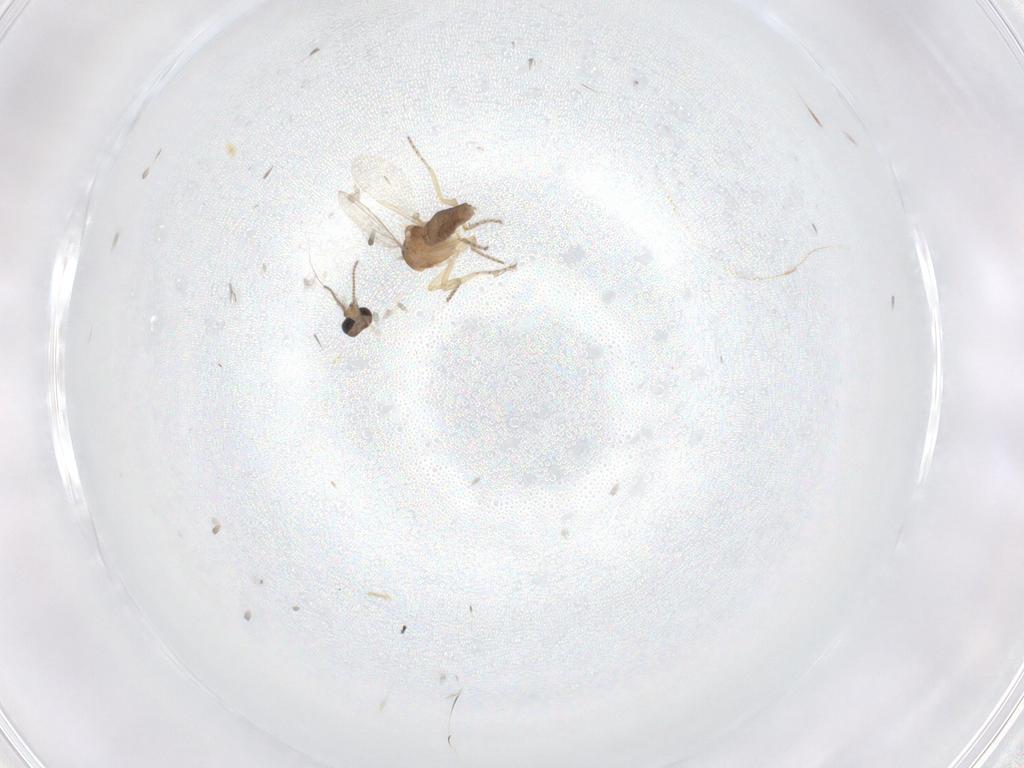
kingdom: Animalia
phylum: Arthropoda
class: Insecta
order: Diptera
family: Ceratopogonidae
